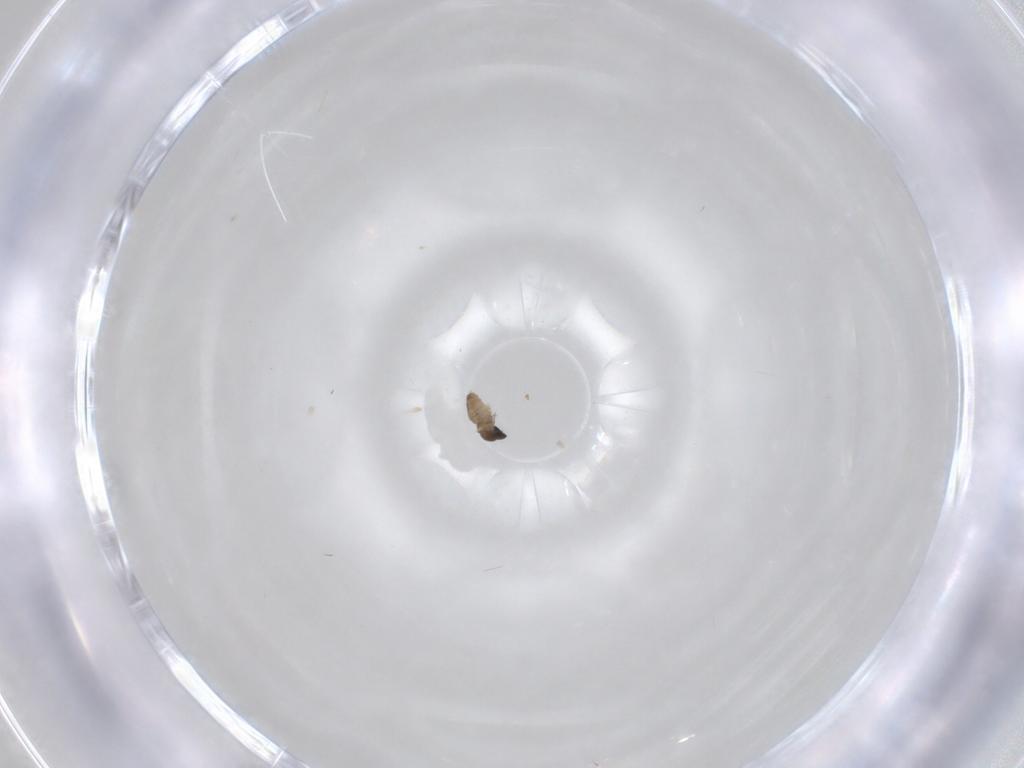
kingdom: Animalia
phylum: Arthropoda
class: Insecta
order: Diptera
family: Cecidomyiidae
